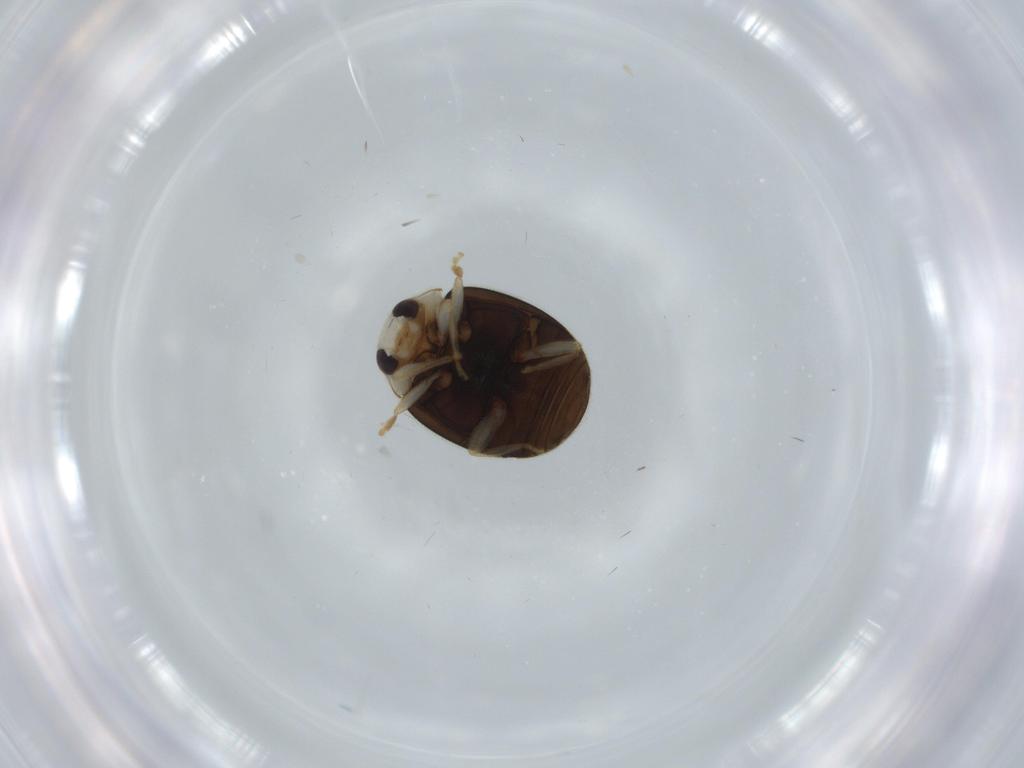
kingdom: Animalia
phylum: Arthropoda
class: Insecta
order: Coleoptera
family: Coccinellidae
